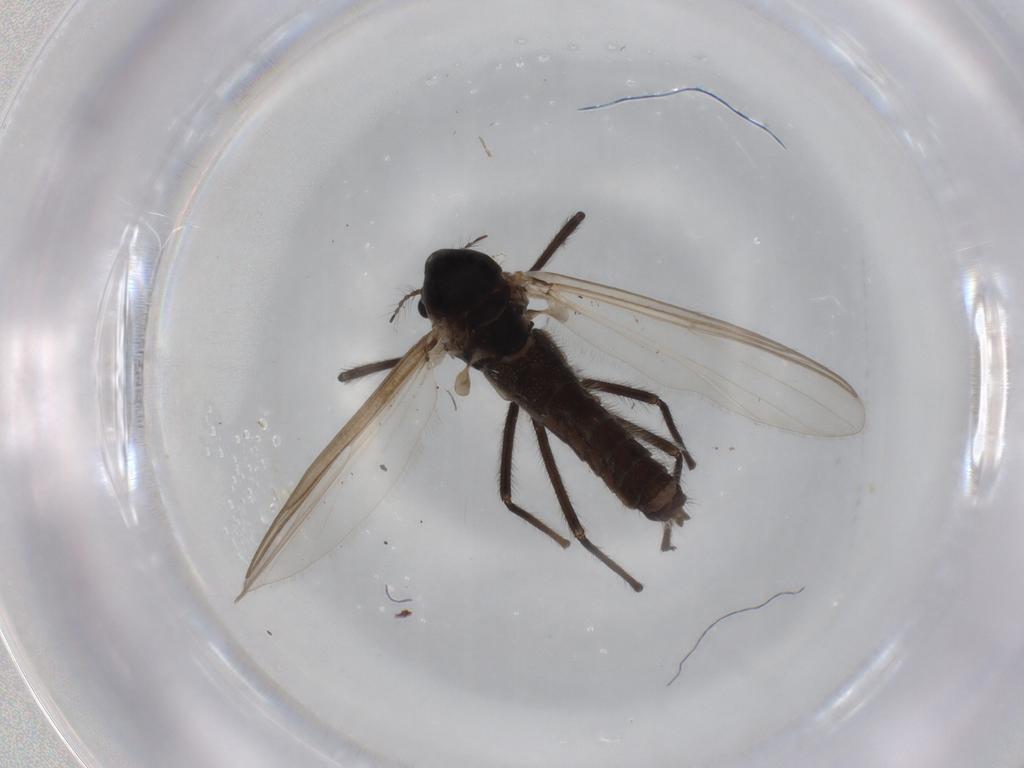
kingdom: Animalia
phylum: Arthropoda
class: Insecta
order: Diptera
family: Chironomidae
